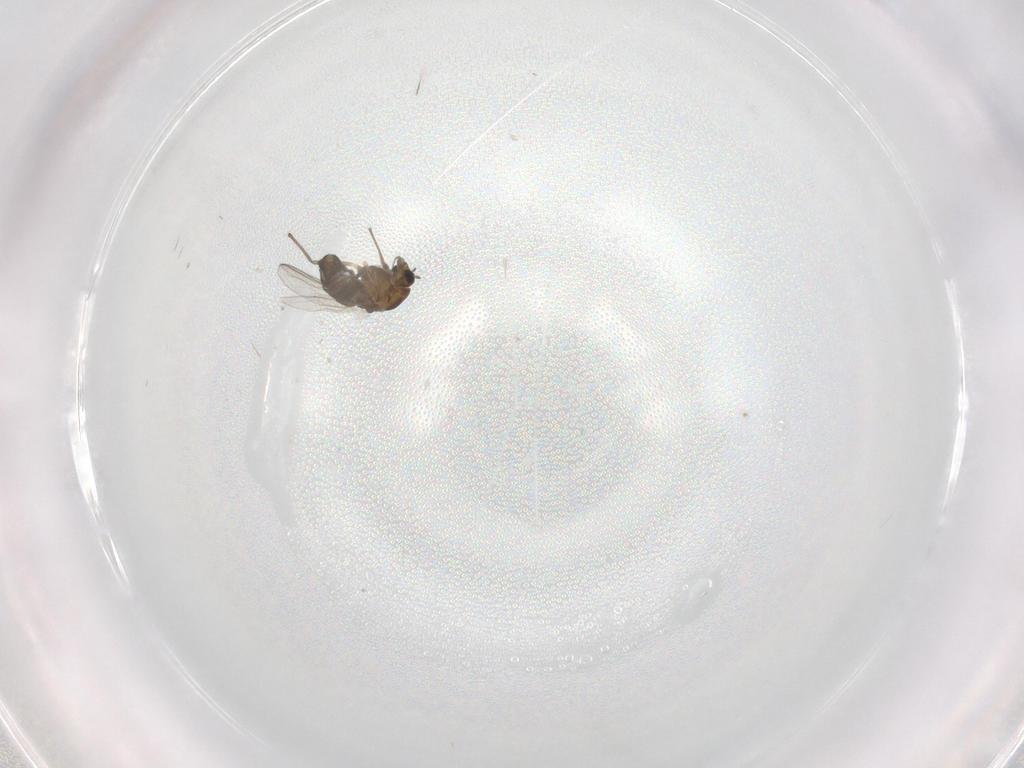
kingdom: Animalia
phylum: Arthropoda
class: Insecta
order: Diptera
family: Chironomidae
